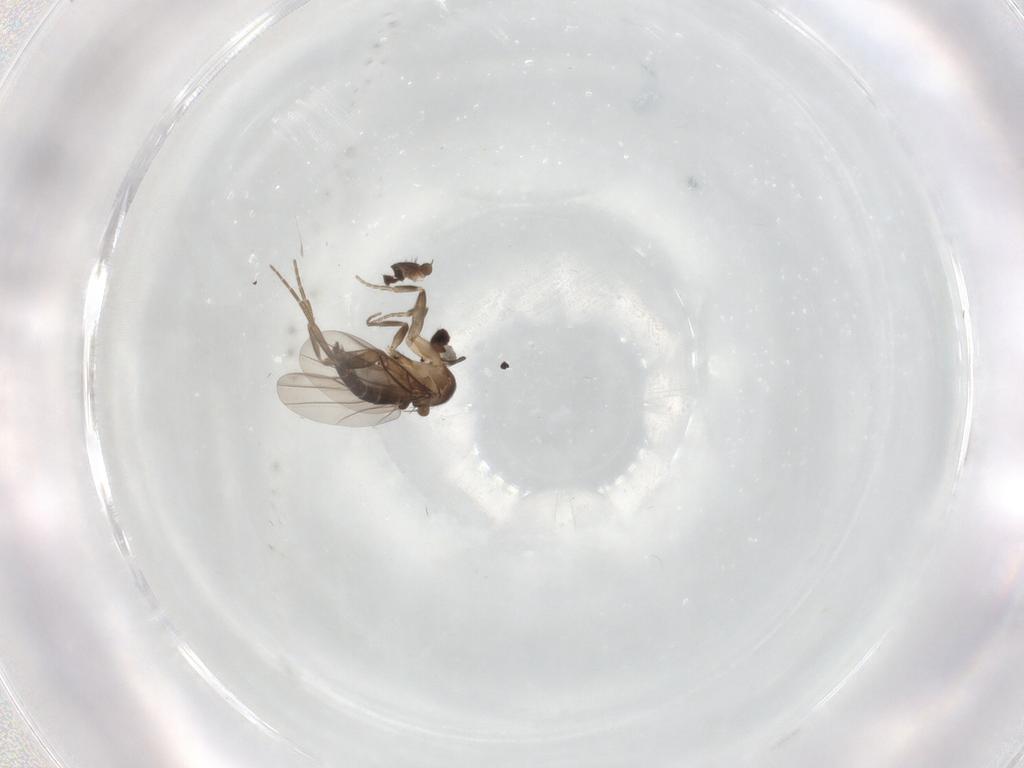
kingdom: Animalia
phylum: Arthropoda
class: Insecta
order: Diptera
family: Phoridae
